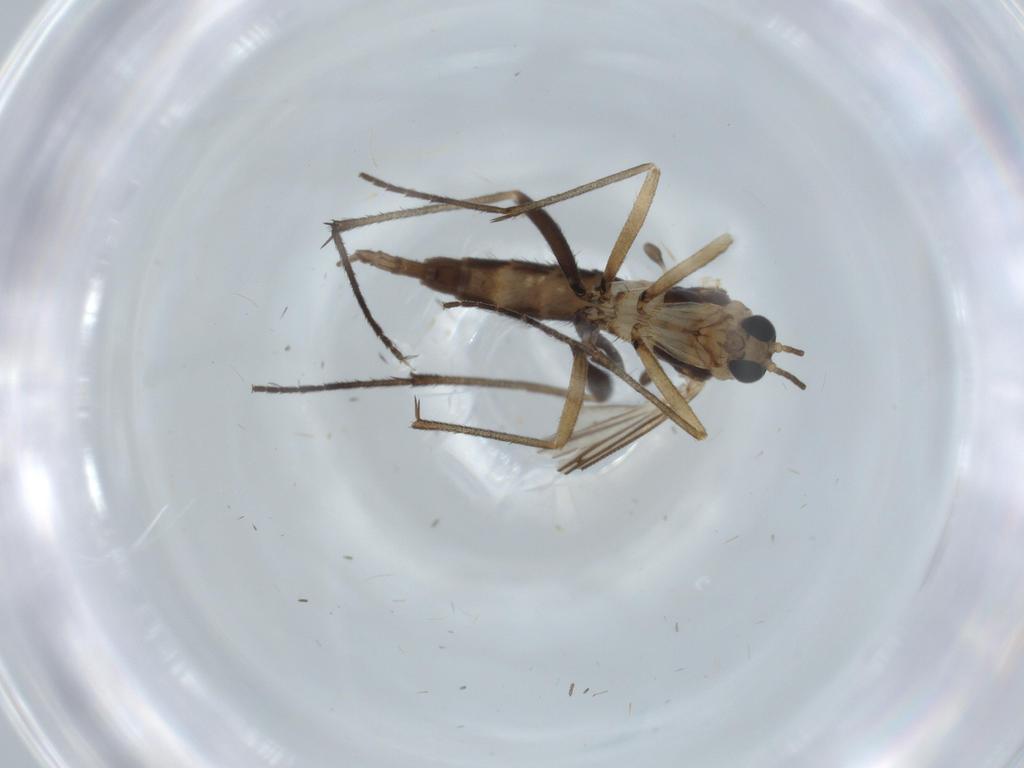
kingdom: Animalia
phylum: Arthropoda
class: Insecta
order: Diptera
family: Sciaridae
